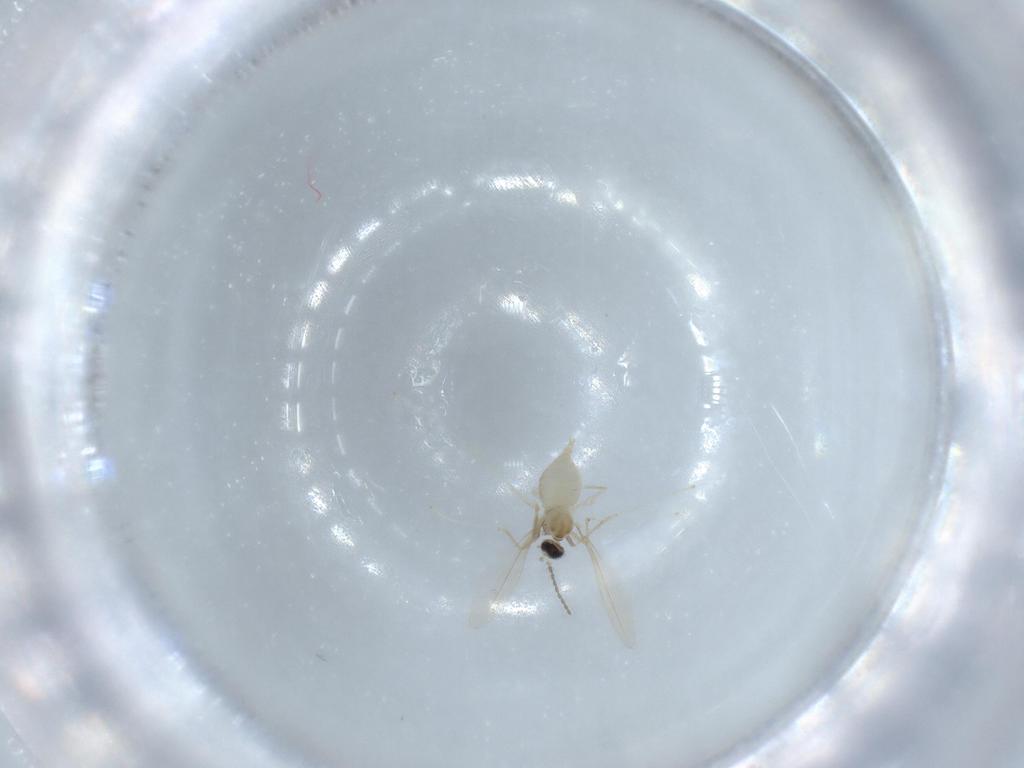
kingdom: Animalia
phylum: Arthropoda
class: Insecta
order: Diptera
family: Cecidomyiidae
